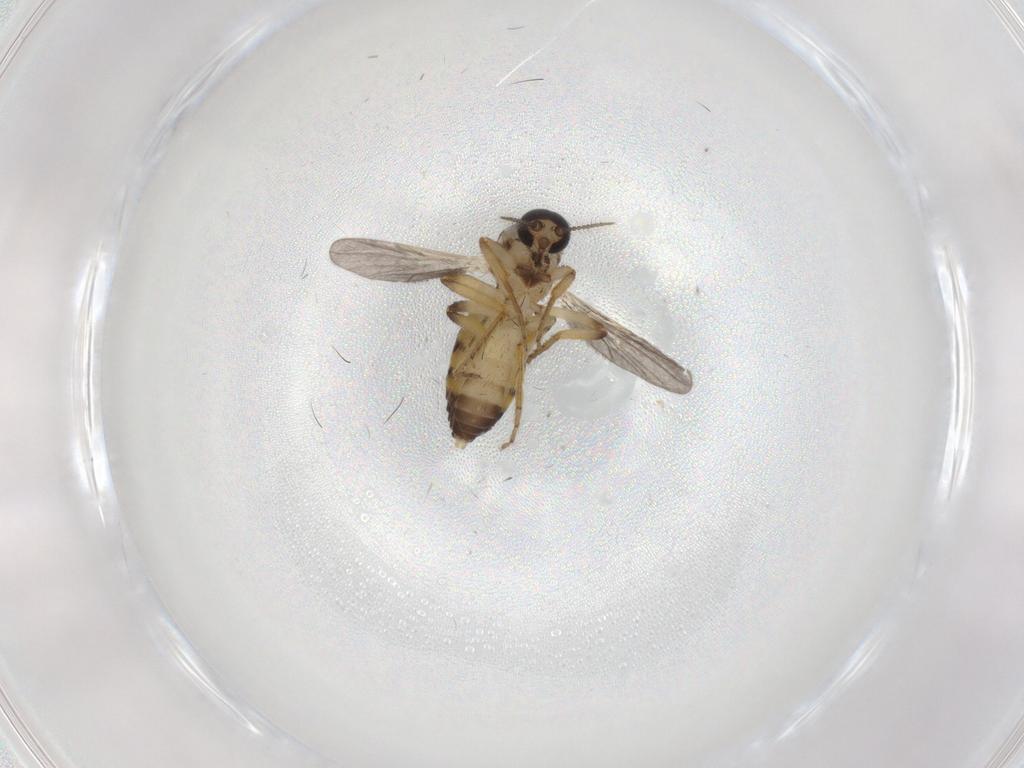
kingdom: Animalia
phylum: Arthropoda
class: Insecta
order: Diptera
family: Ceratopogonidae
